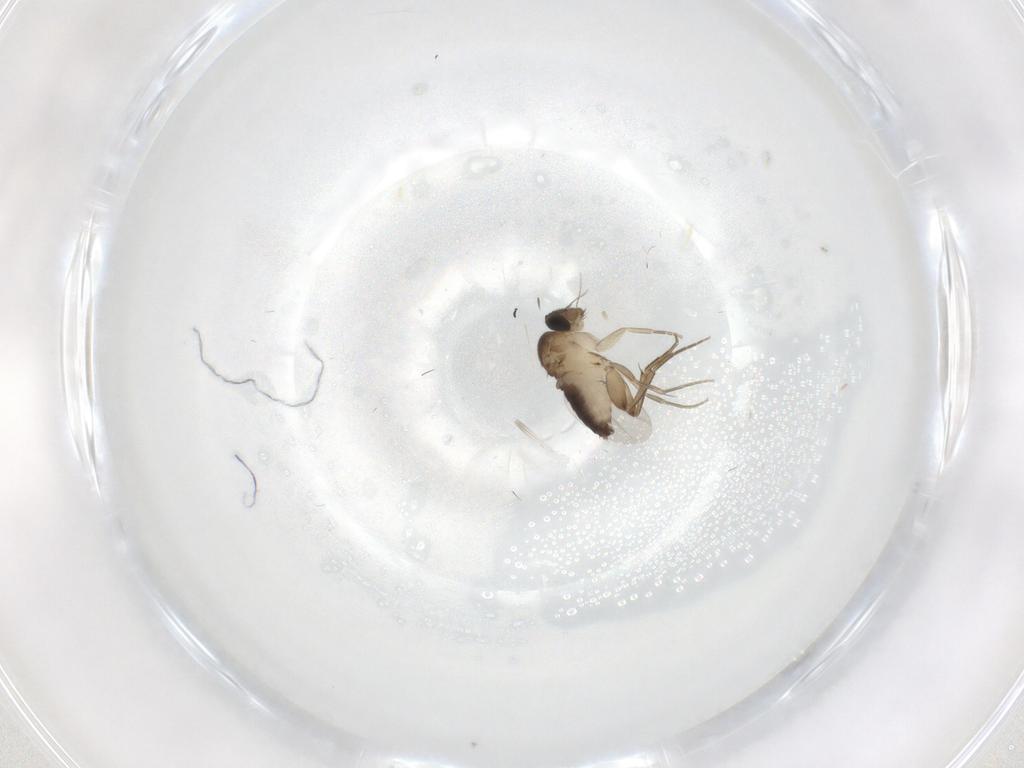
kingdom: Animalia
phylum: Arthropoda
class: Insecta
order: Diptera
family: Phoridae
